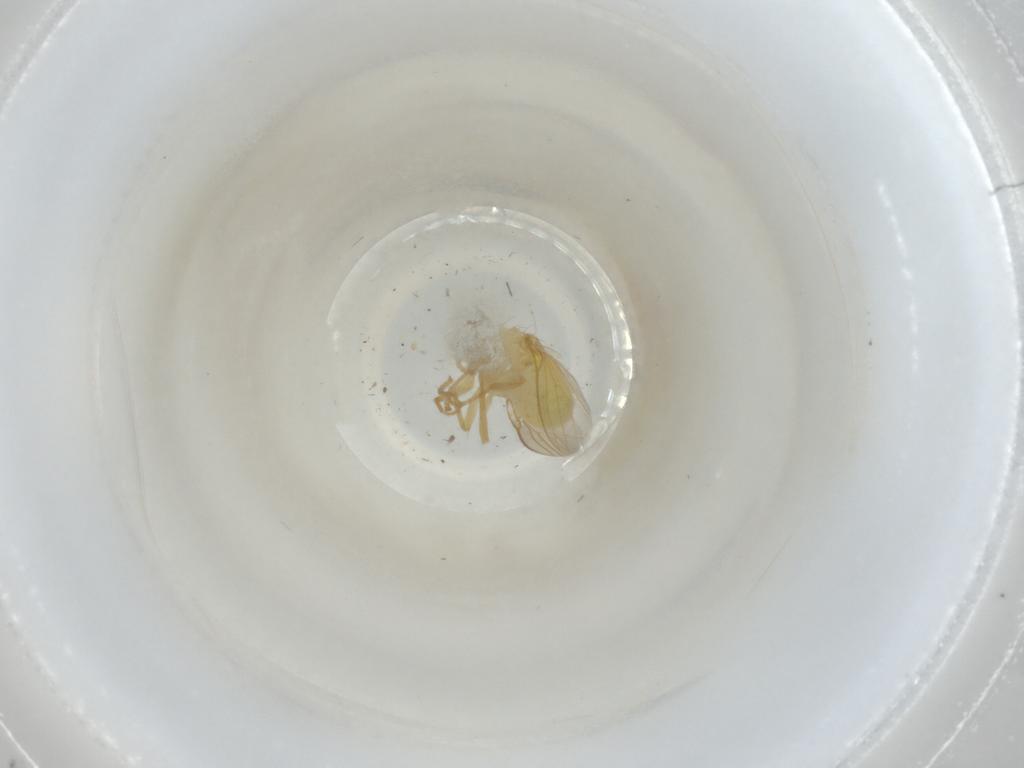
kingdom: Animalia
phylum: Arthropoda
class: Insecta
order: Diptera
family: Chyromyidae
